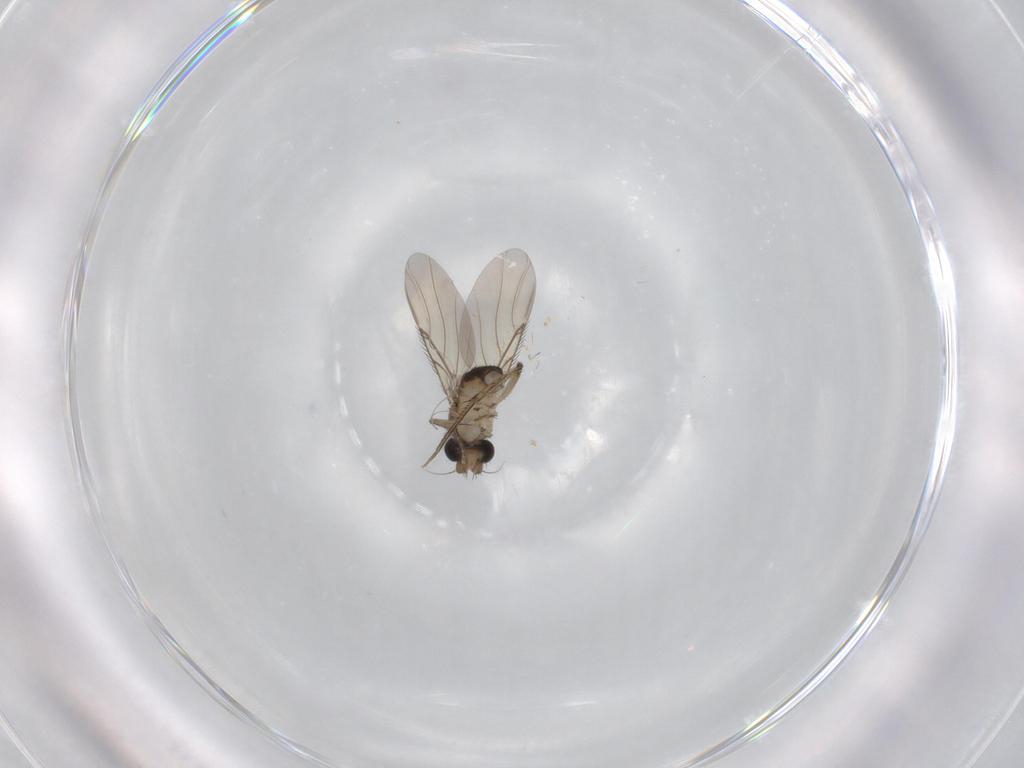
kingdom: Animalia
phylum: Arthropoda
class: Insecta
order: Diptera
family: Phoridae
